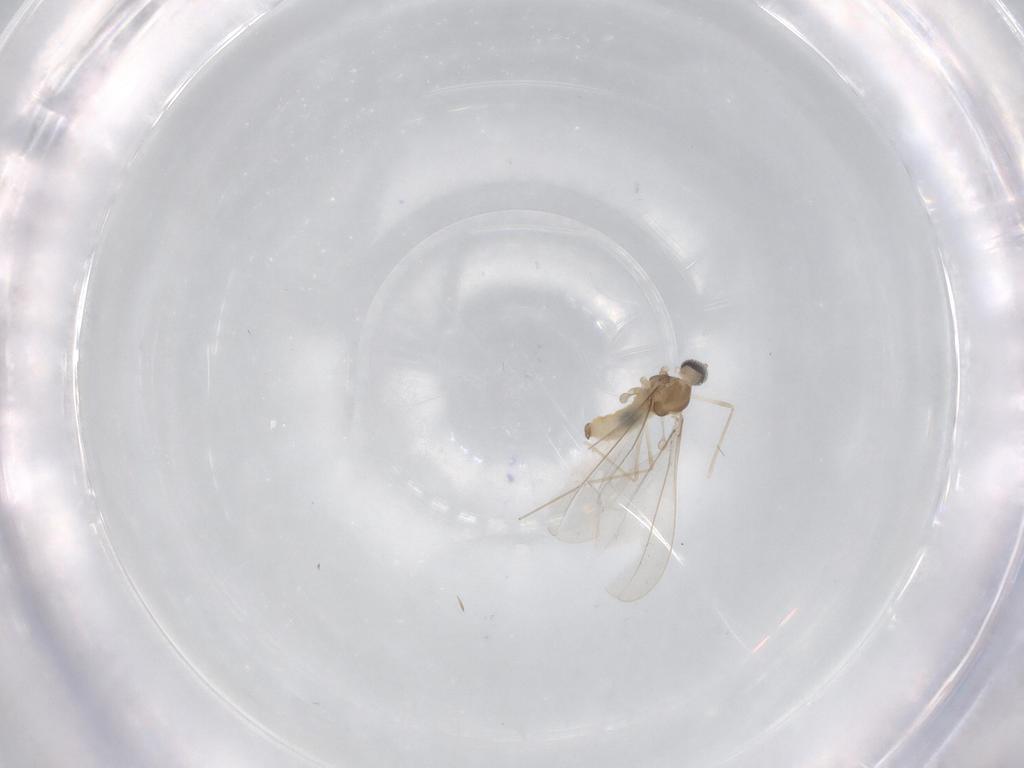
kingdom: Animalia
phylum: Arthropoda
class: Insecta
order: Diptera
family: Cecidomyiidae
